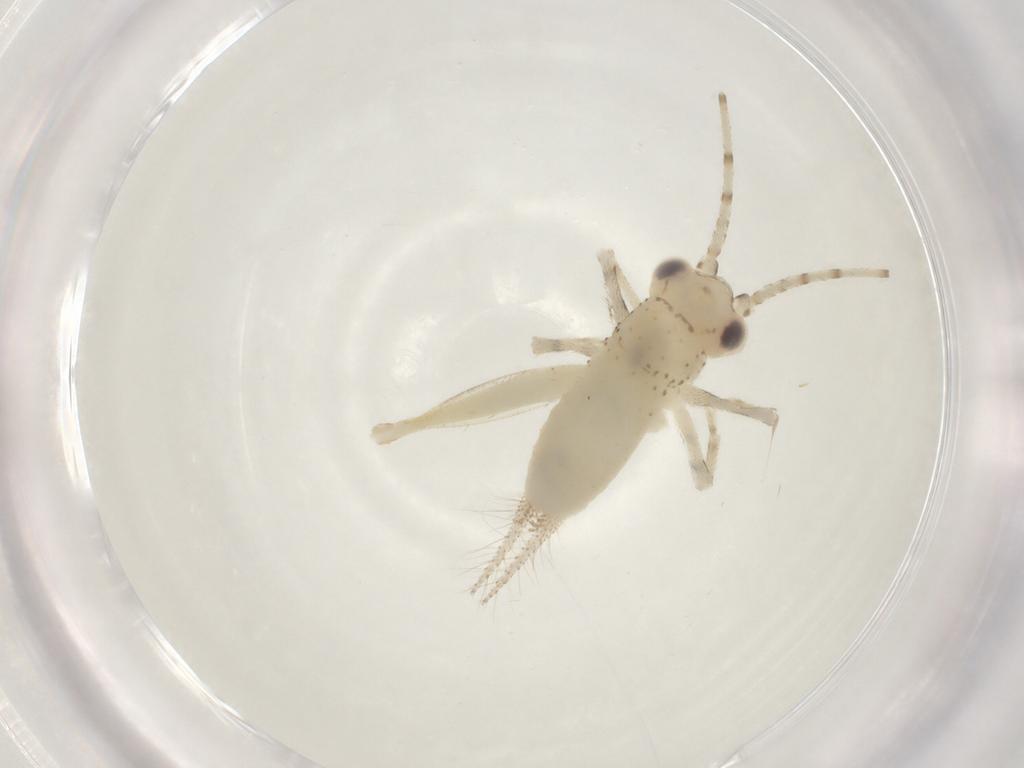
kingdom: Animalia
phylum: Arthropoda
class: Insecta
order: Orthoptera
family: Trigonidiidae
